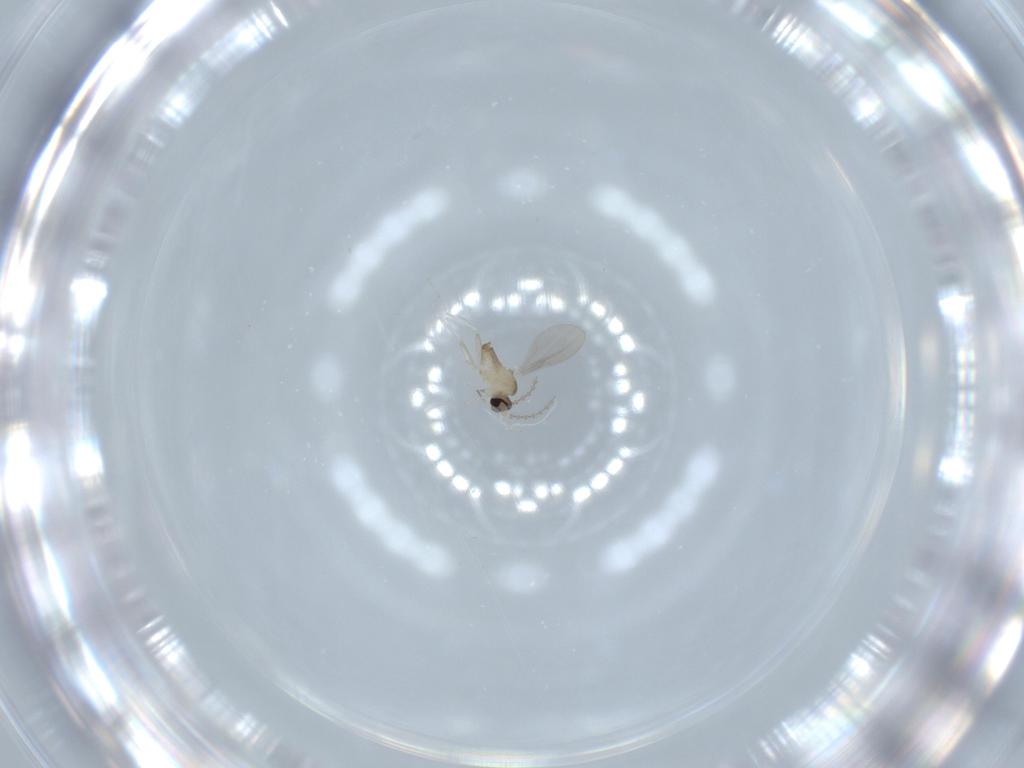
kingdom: Animalia
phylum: Arthropoda
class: Insecta
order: Diptera
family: Cecidomyiidae
